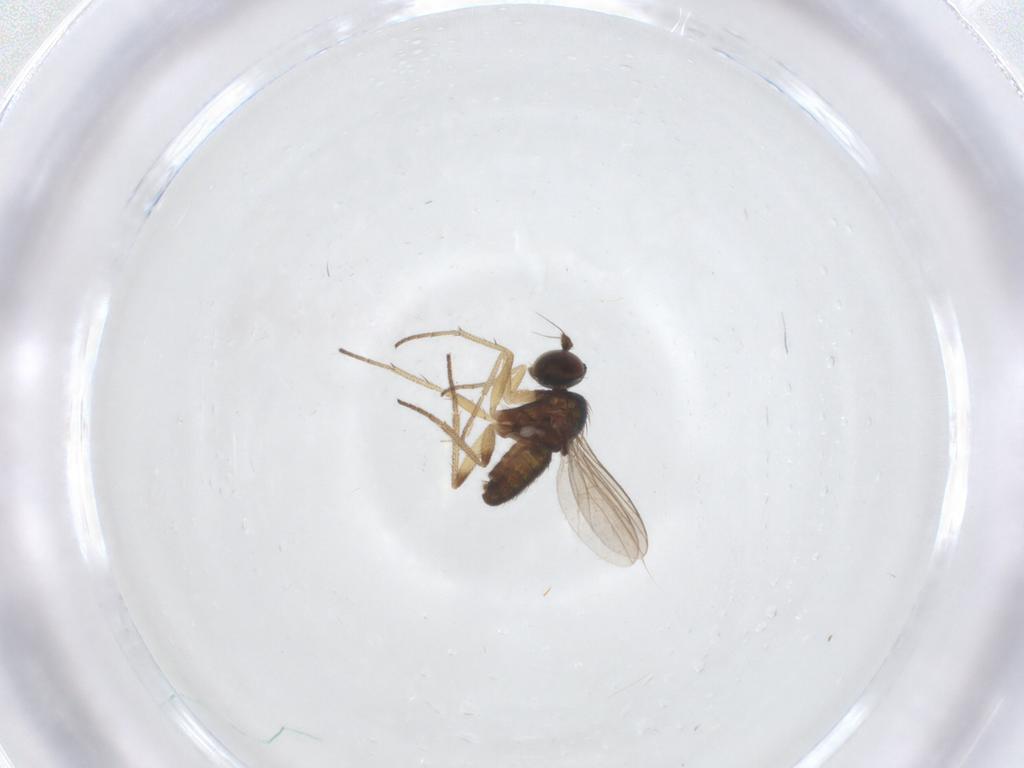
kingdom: Animalia
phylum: Arthropoda
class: Insecta
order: Diptera
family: Ceratopogonidae
